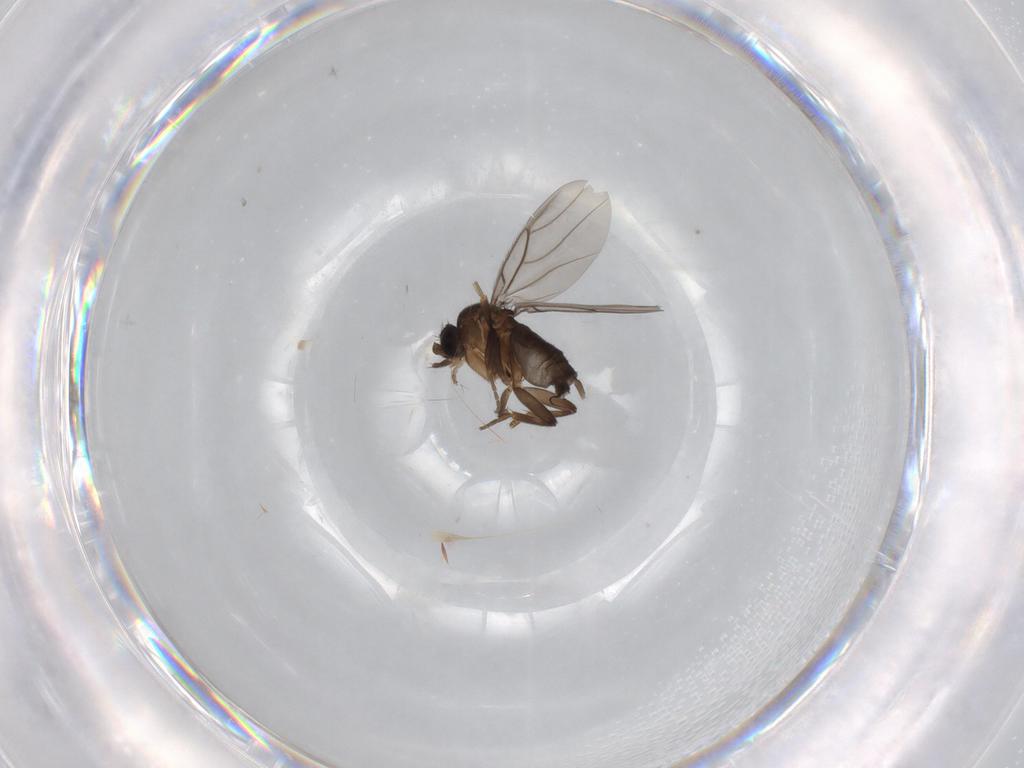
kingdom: Animalia
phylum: Arthropoda
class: Insecta
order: Diptera
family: Phoridae
